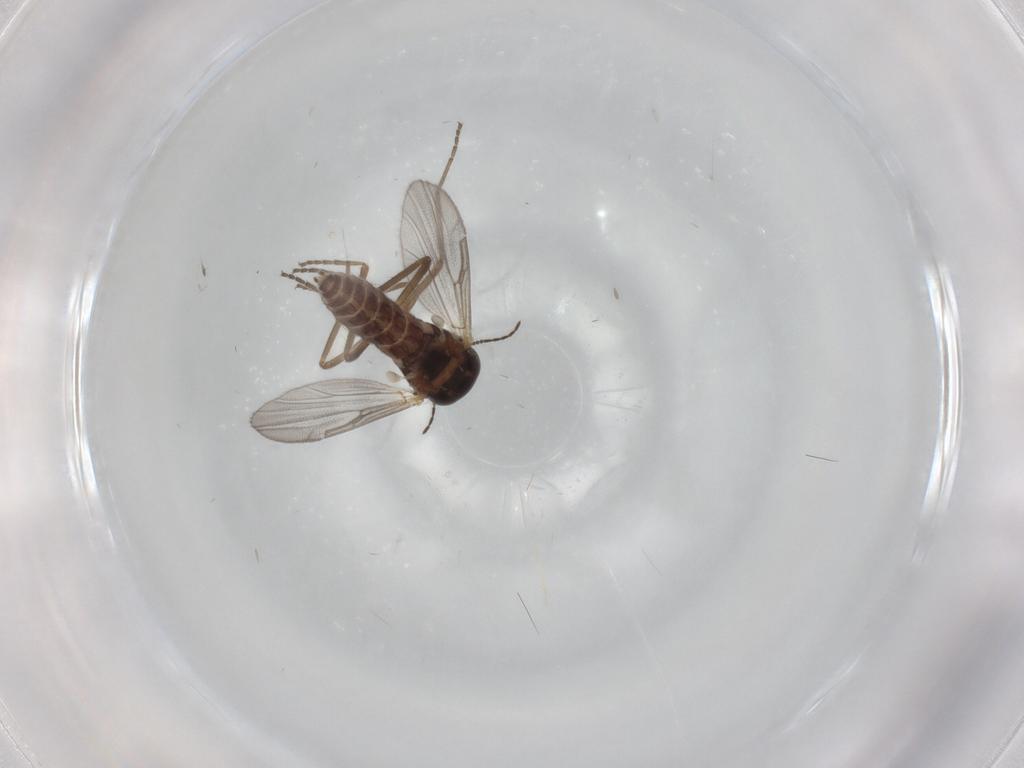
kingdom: Animalia
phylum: Arthropoda
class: Insecta
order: Diptera
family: Ceratopogonidae
